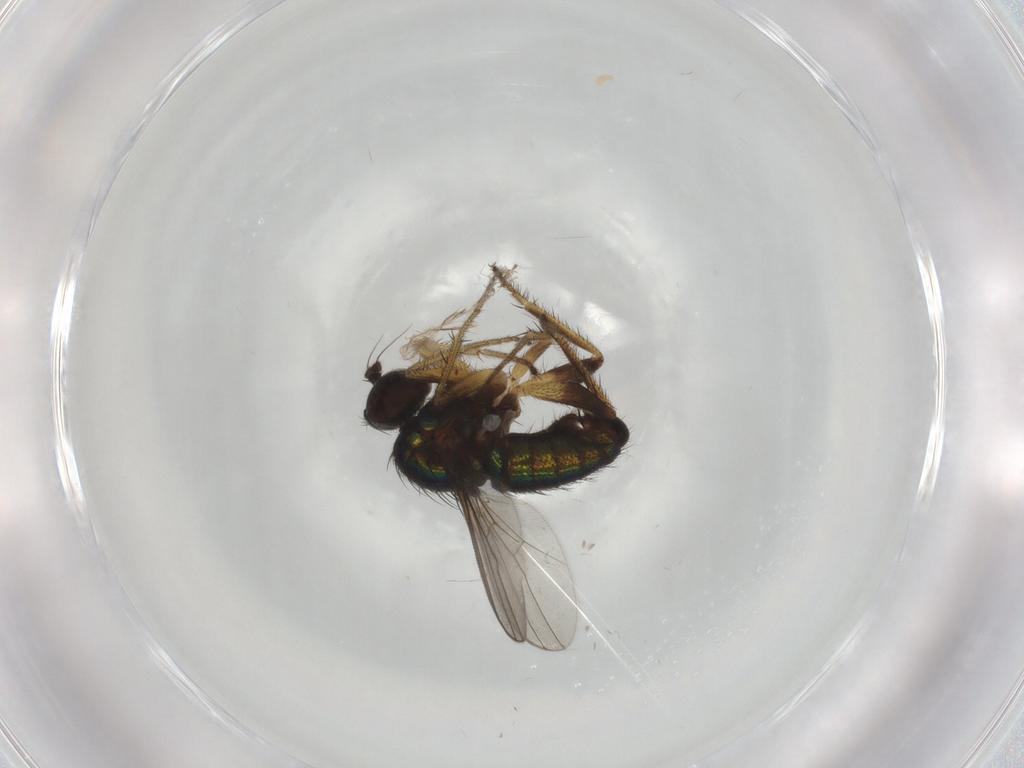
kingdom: Animalia
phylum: Arthropoda
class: Insecta
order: Diptera
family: Dolichopodidae
